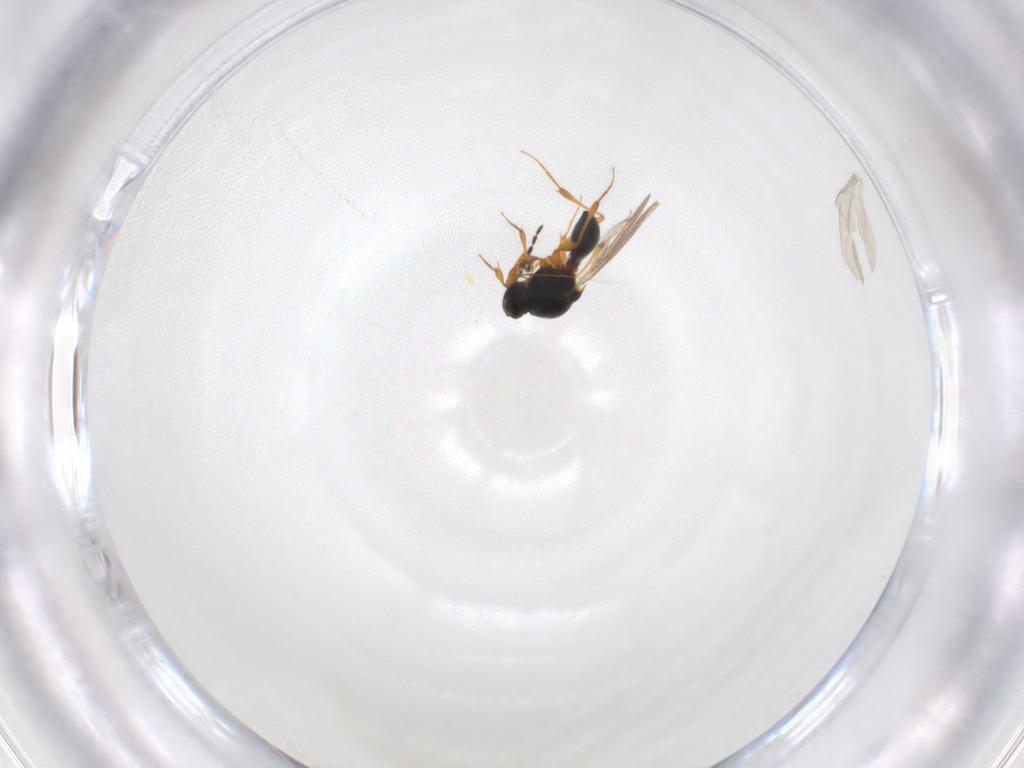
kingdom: Animalia
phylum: Arthropoda
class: Insecta
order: Hymenoptera
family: Platygastridae
